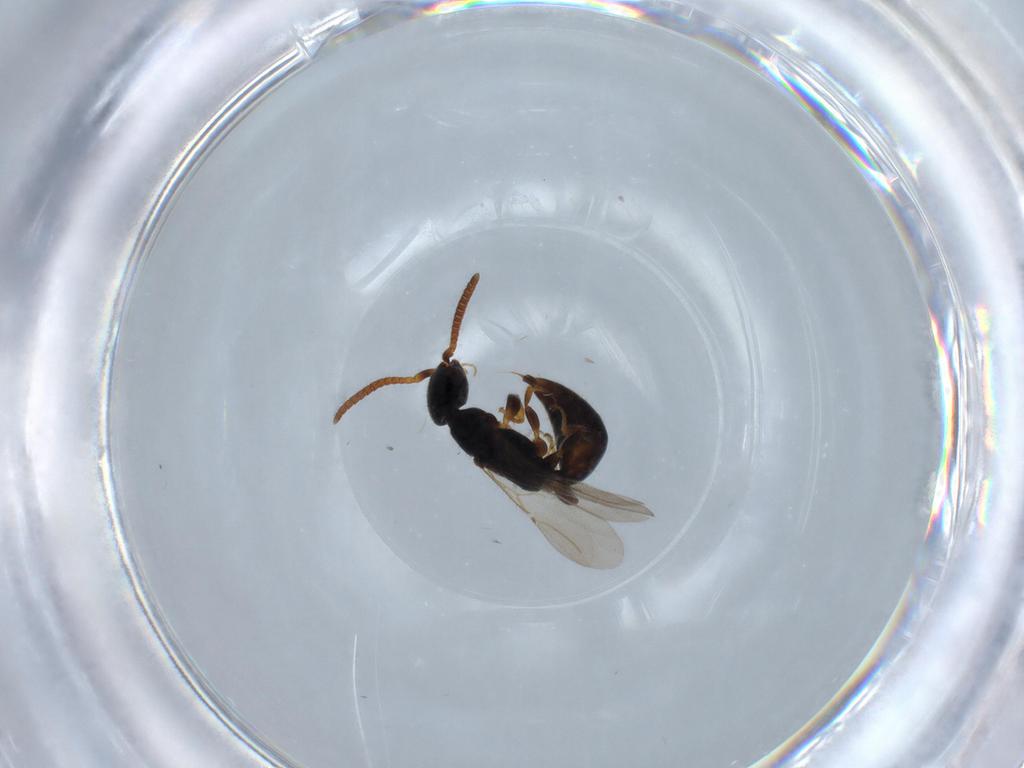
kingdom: Animalia
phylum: Arthropoda
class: Insecta
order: Hymenoptera
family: Bethylidae
